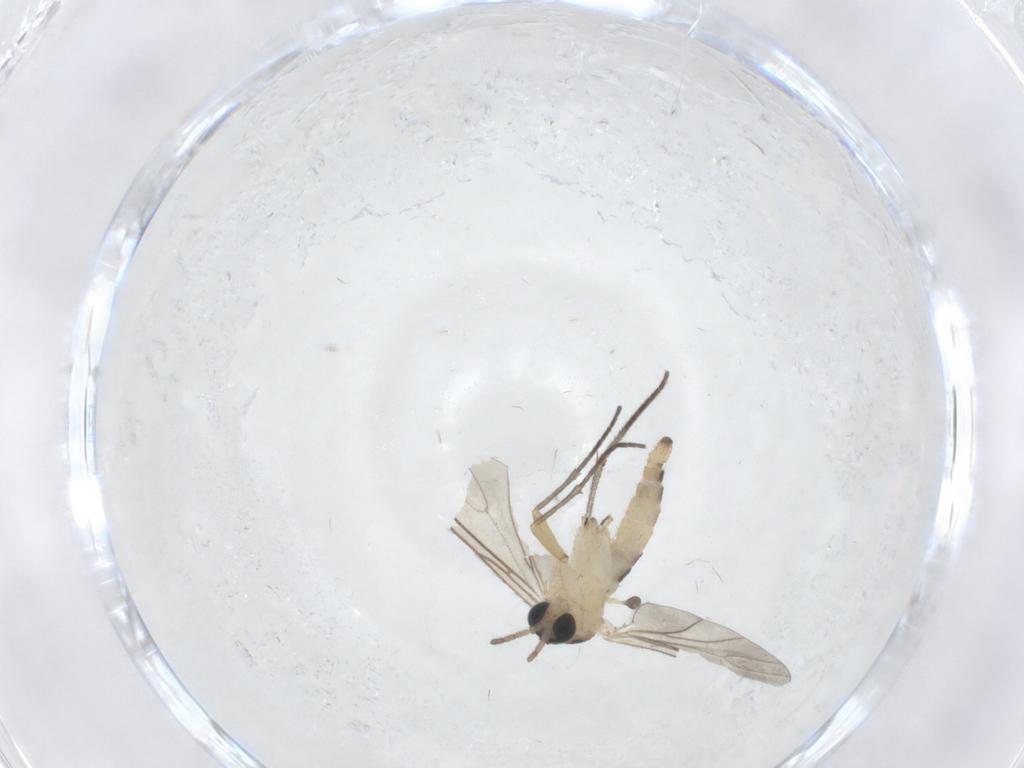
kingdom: Animalia
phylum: Arthropoda
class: Insecta
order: Diptera
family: Sciaridae
